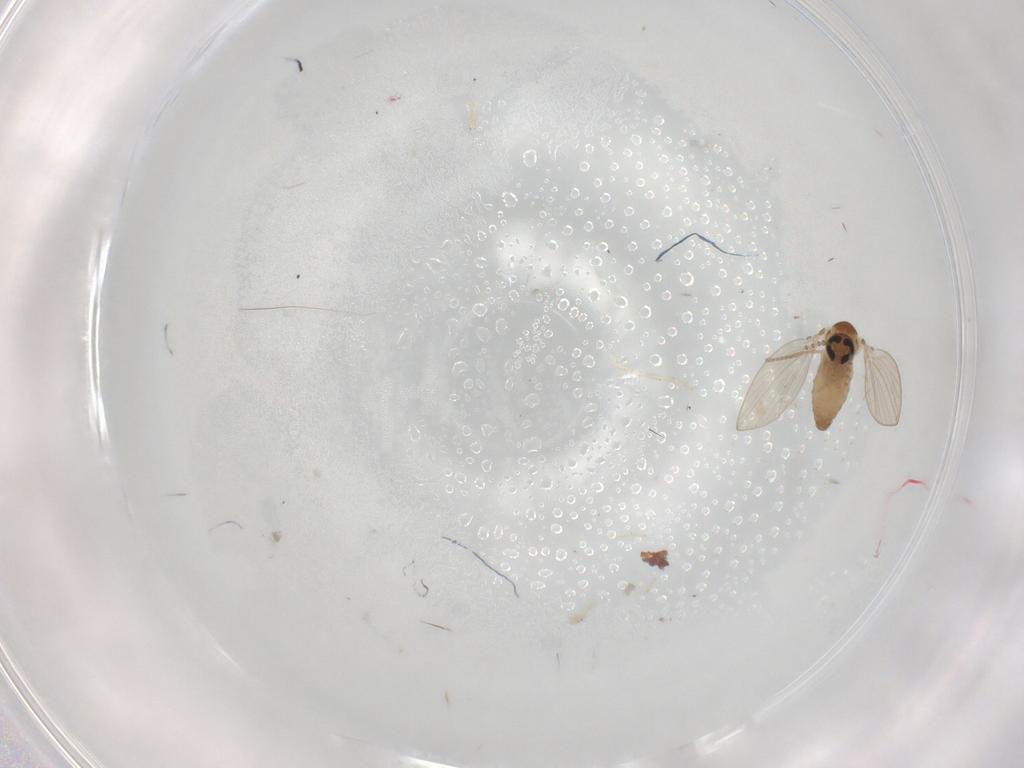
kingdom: Animalia
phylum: Arthropoda
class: Insecta
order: Diptera
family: Psychodidae
